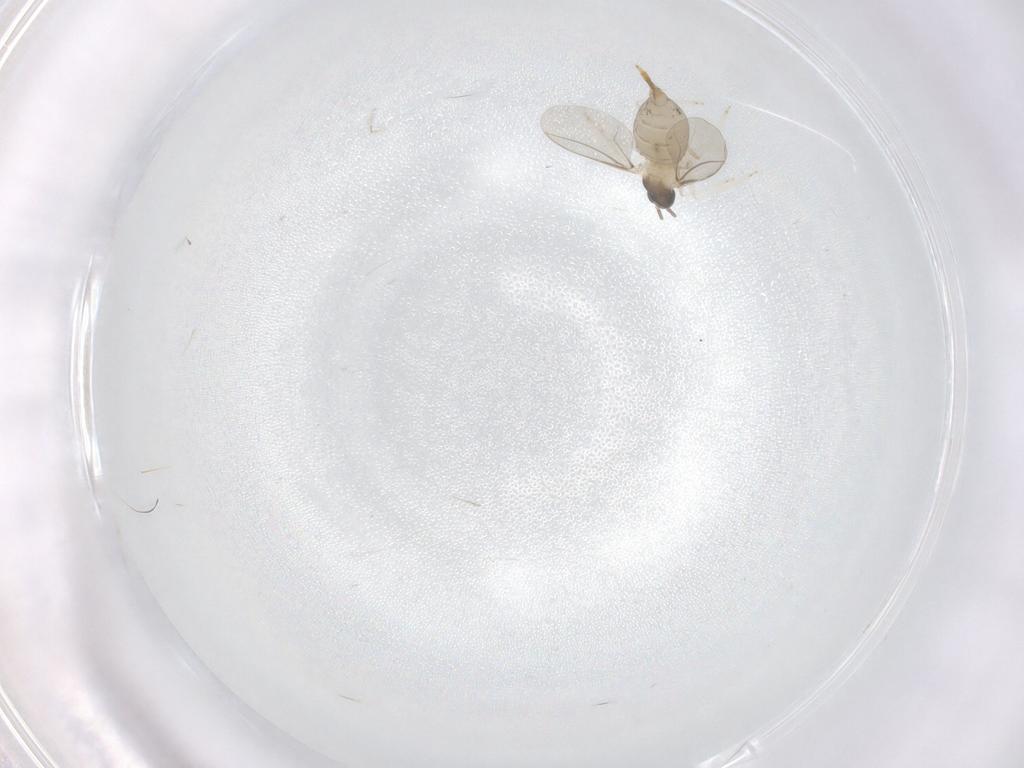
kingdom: Animalia
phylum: Arthropoda
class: Insecta
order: Diptera
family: Cecidomyiidae
